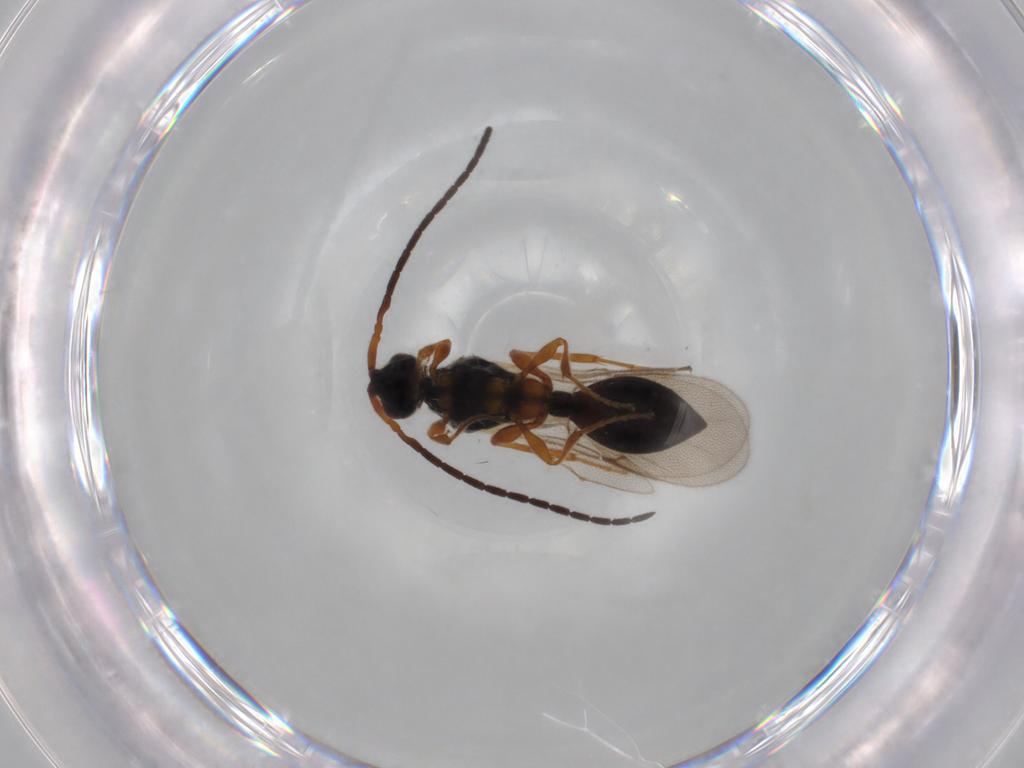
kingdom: Animalia
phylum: Arthropoda
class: Insecta
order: Hymenoptera
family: Diapriidae
